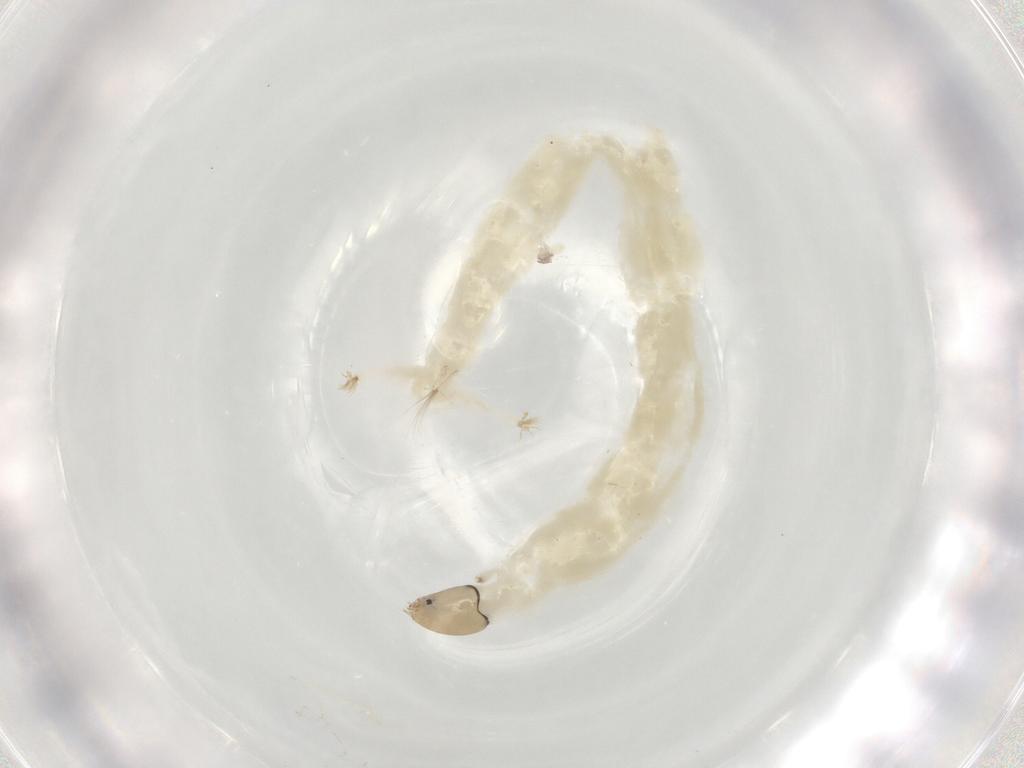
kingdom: Animalia
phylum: Arthropoda
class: Insecta
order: Diptera
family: Chironomidae
